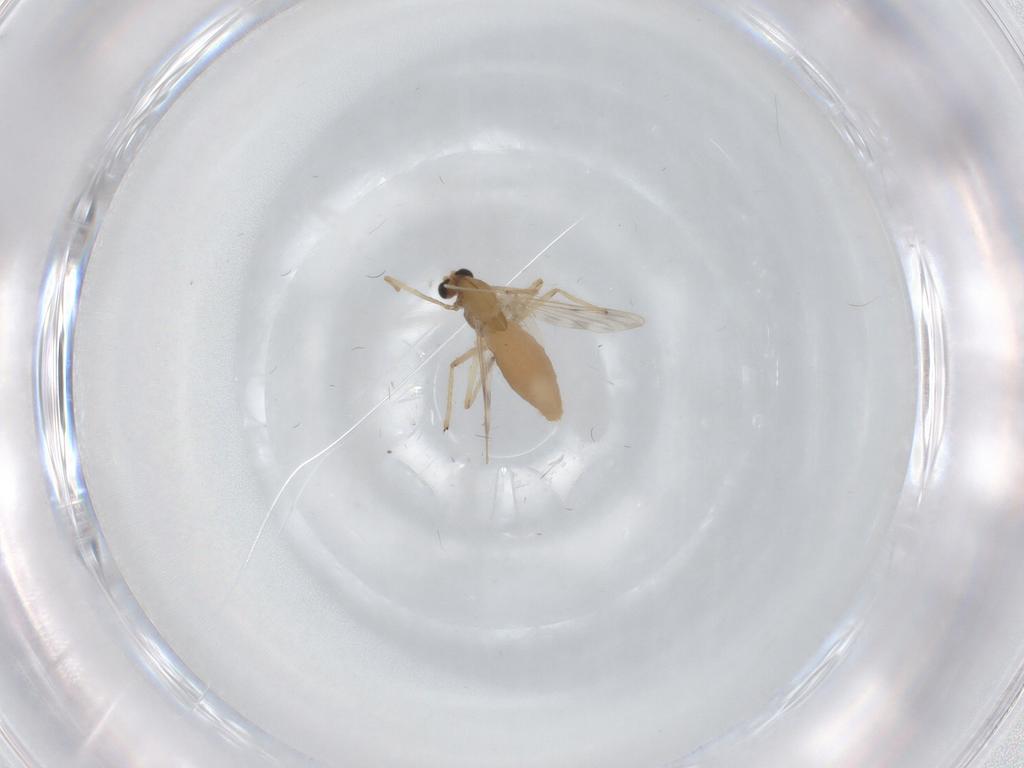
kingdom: Animalia
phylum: Arthropoda
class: Insecta
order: Diptera
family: Chironomidae
